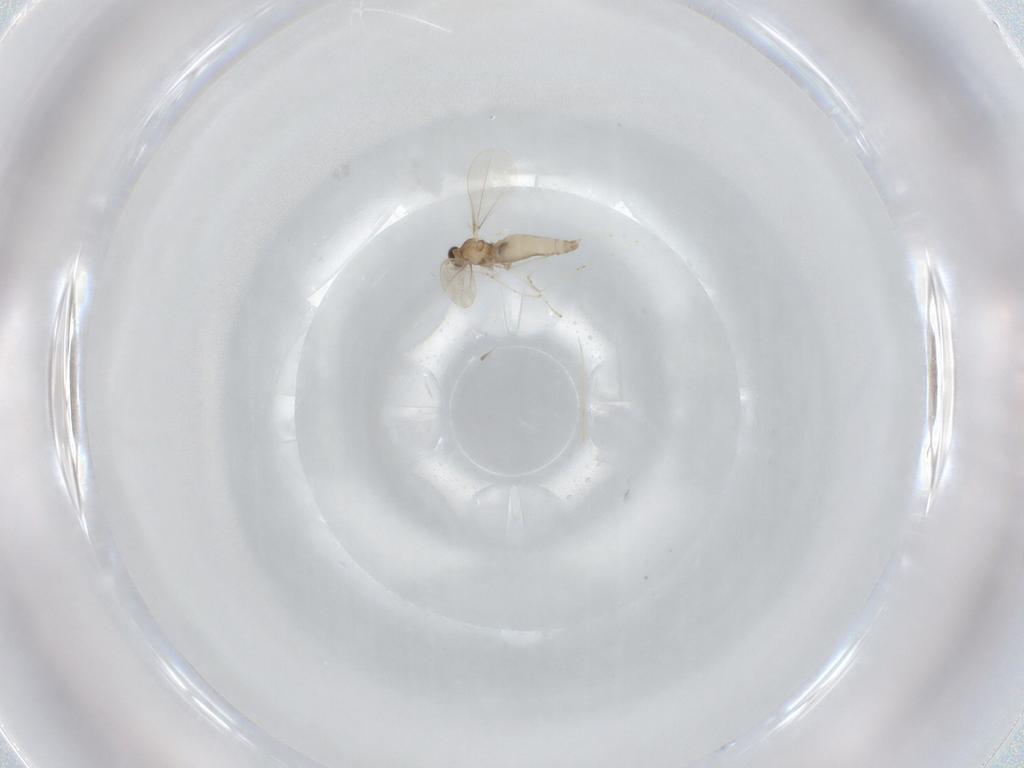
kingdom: Animalia
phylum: Arthropoda
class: Insecta
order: Diptera
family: Cecidomyiidae
